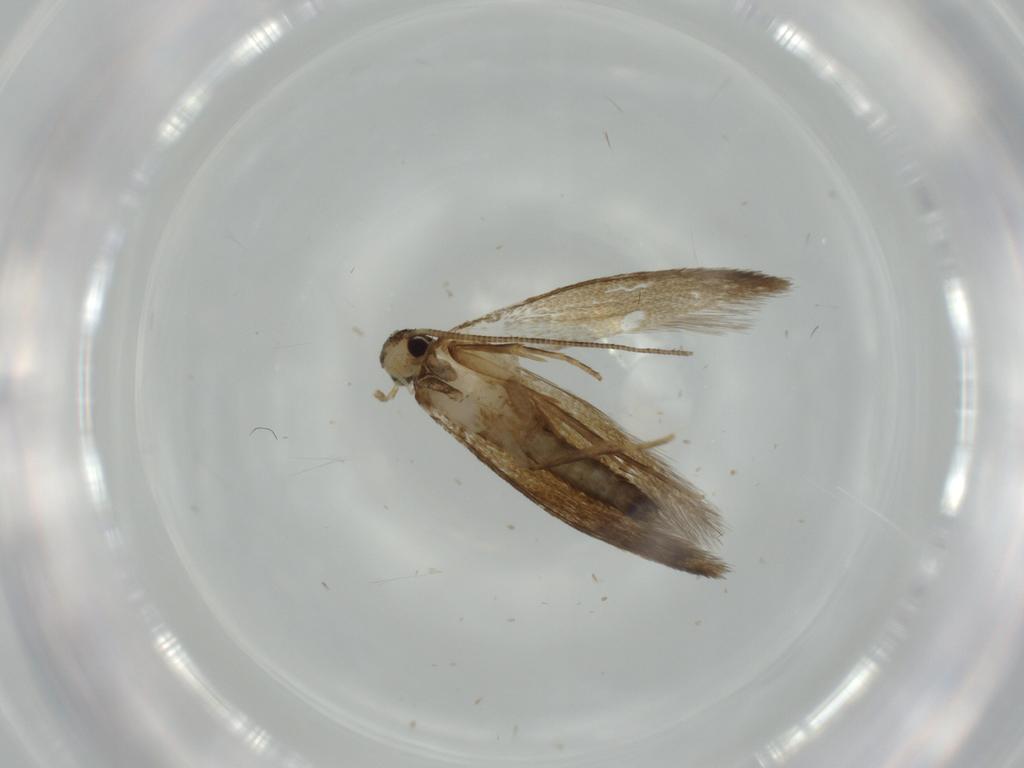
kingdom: Animalia
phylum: Arthropoda
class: Insecta
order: Lepidoptera
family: Tineidae
